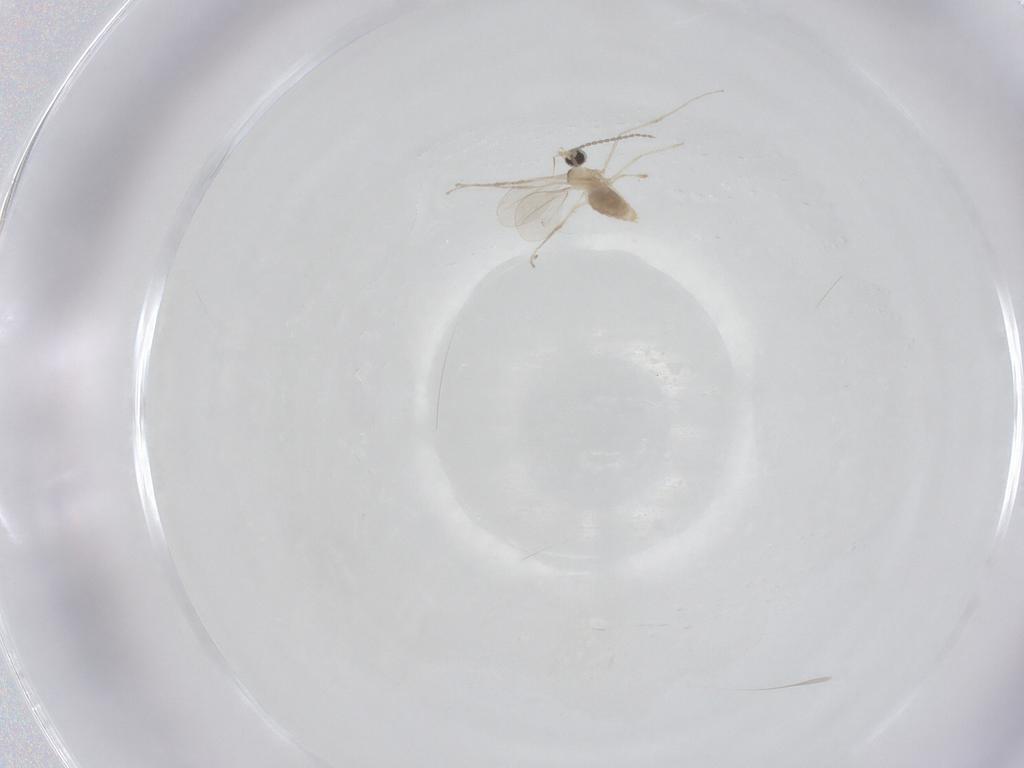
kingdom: Animalia
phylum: Arthropoda
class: Insecta
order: Diptera
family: Cecidomyiidae
